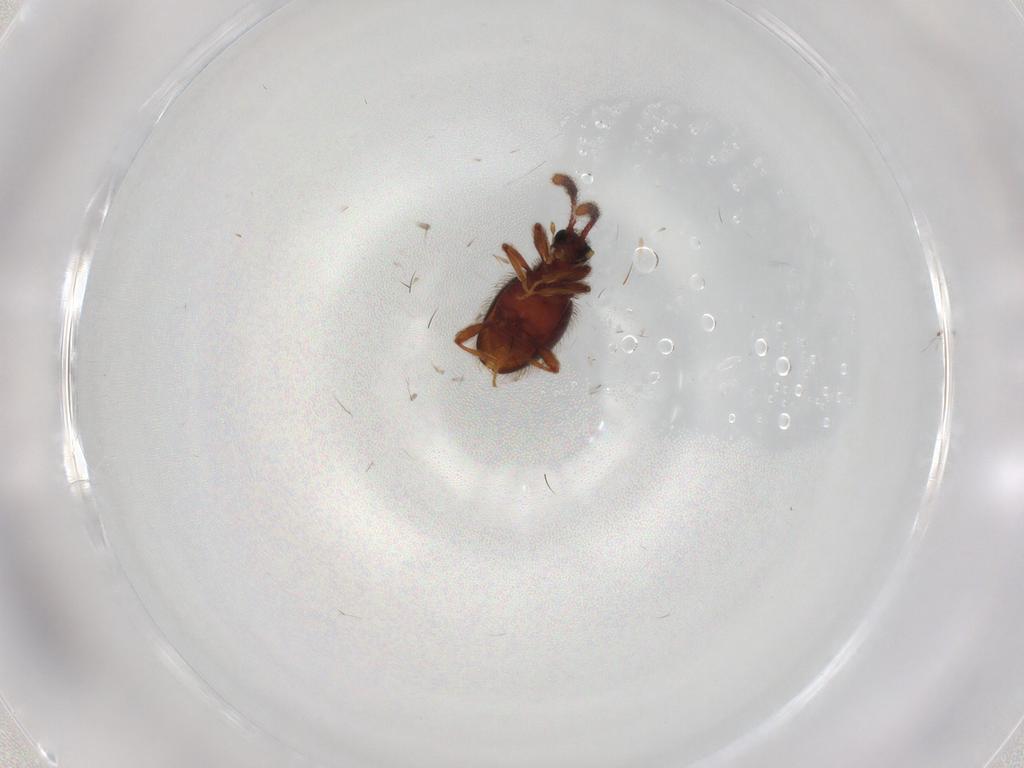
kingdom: Animalia
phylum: Arthropoda
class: Insecta
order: Coleoptera
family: Staphylinidae
